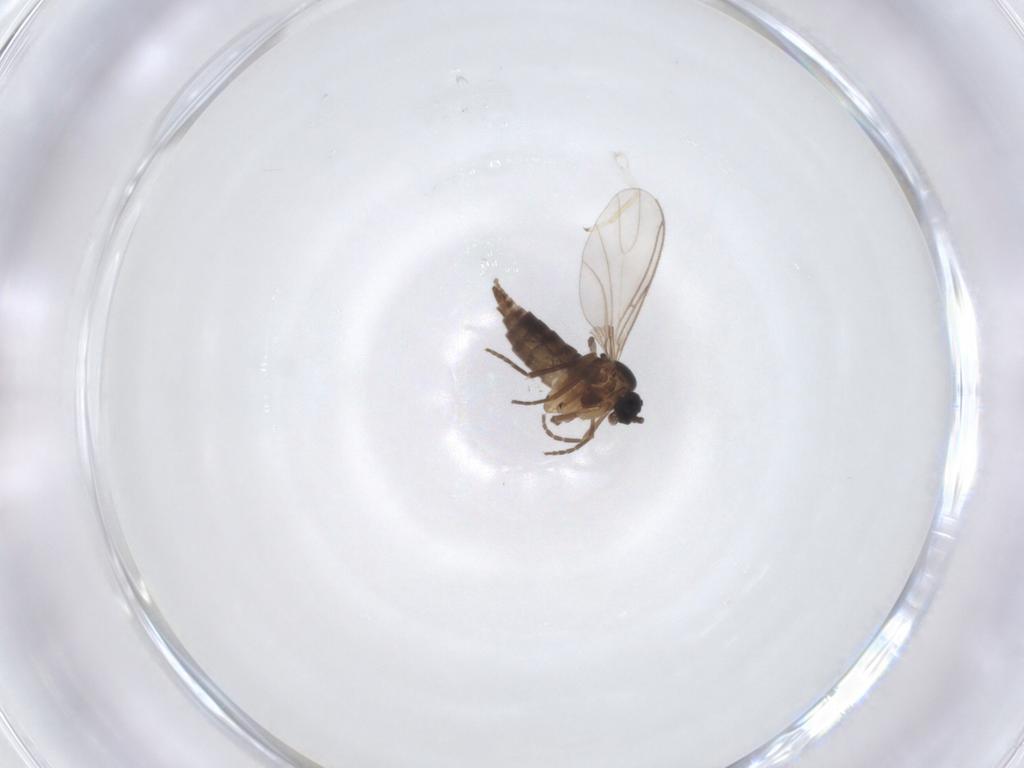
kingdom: Animalia
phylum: Arthropoda
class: Insecta
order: Diptera
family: Sciaridae
